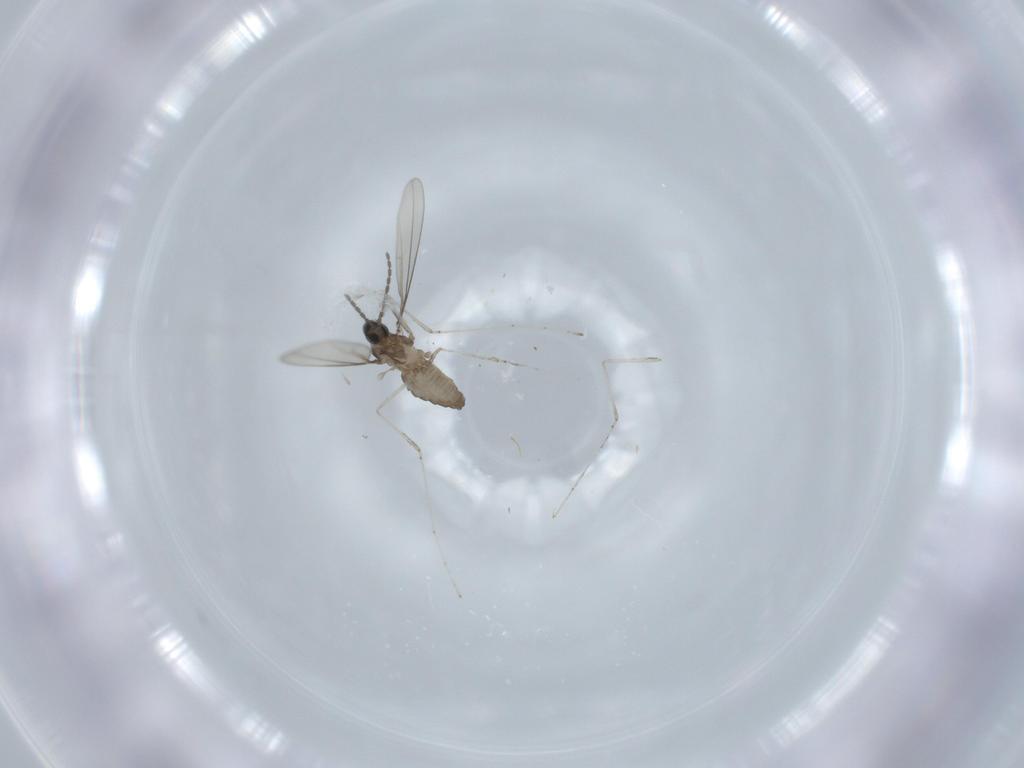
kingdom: Animalia
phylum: Arthropoda
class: Insecta
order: Diptera
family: Cecidomyiidae
